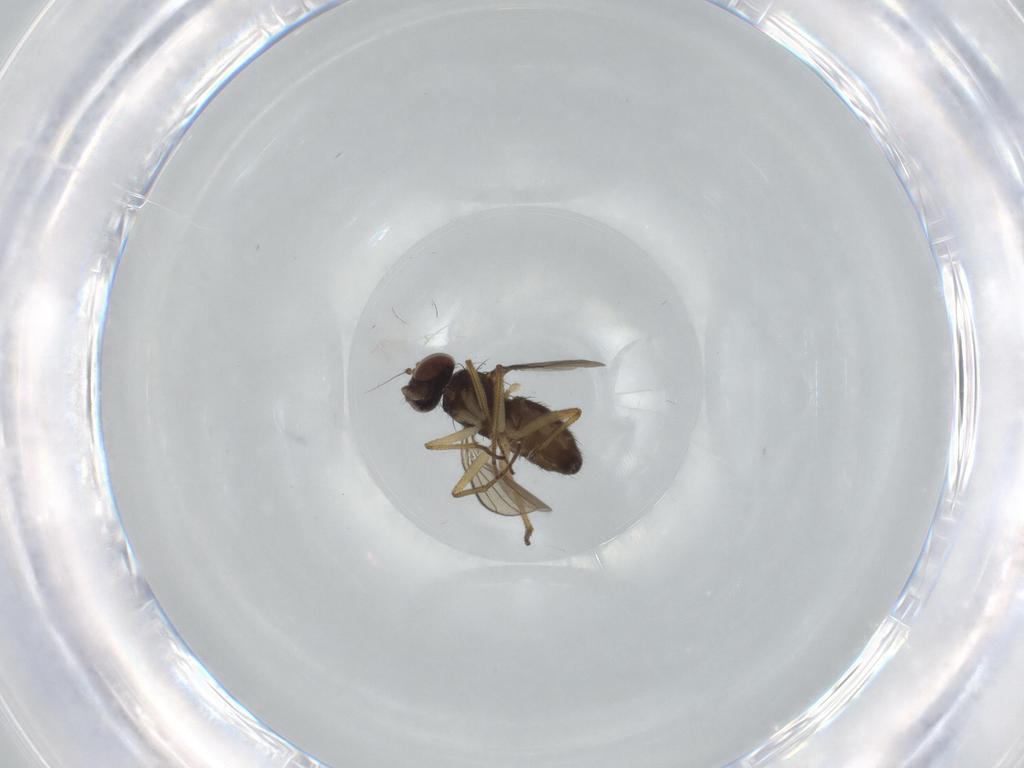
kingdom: Animalia
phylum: Arthropoda
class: Insecta
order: Diptera
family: Dolichopodidae
